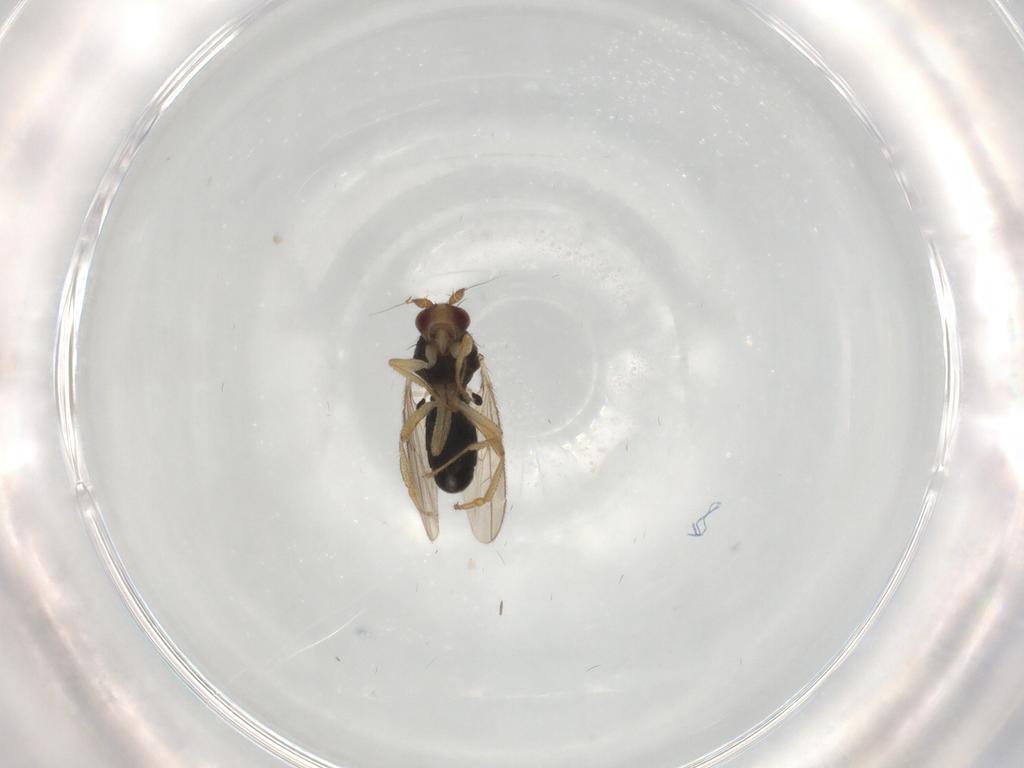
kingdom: Animalia
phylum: Arthropoda
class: Insecta
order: Diptera
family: Sphaeroceridae
